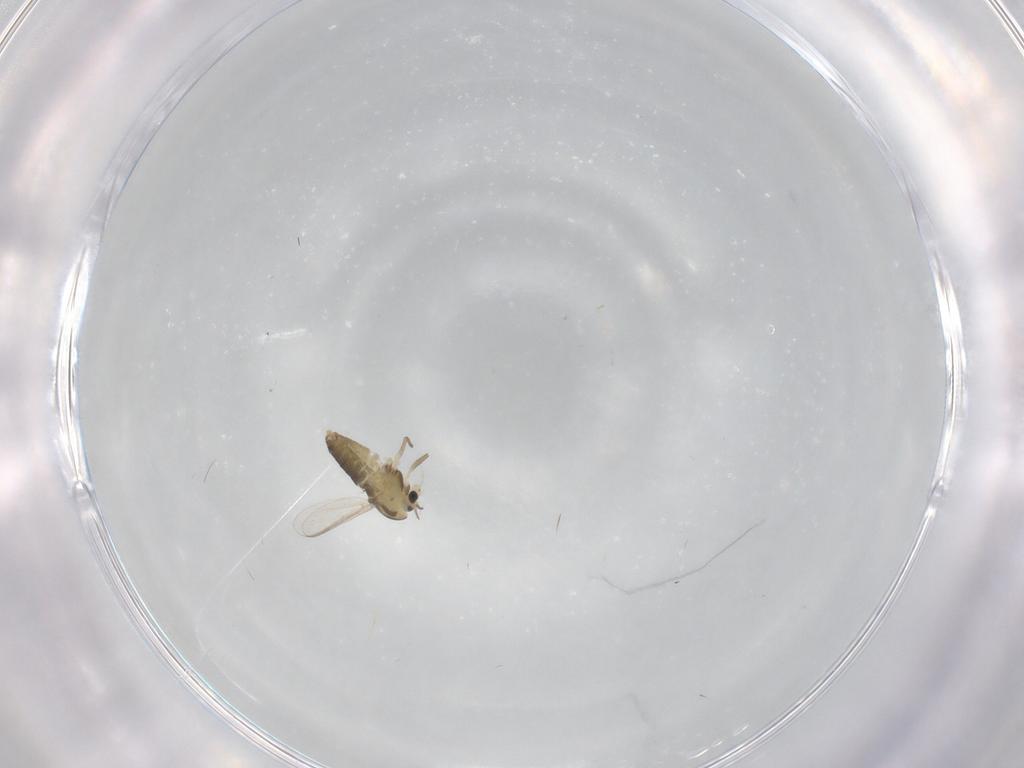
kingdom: Animalia
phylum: Arthropoda
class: Insecta
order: Diptera
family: Chironomidae
